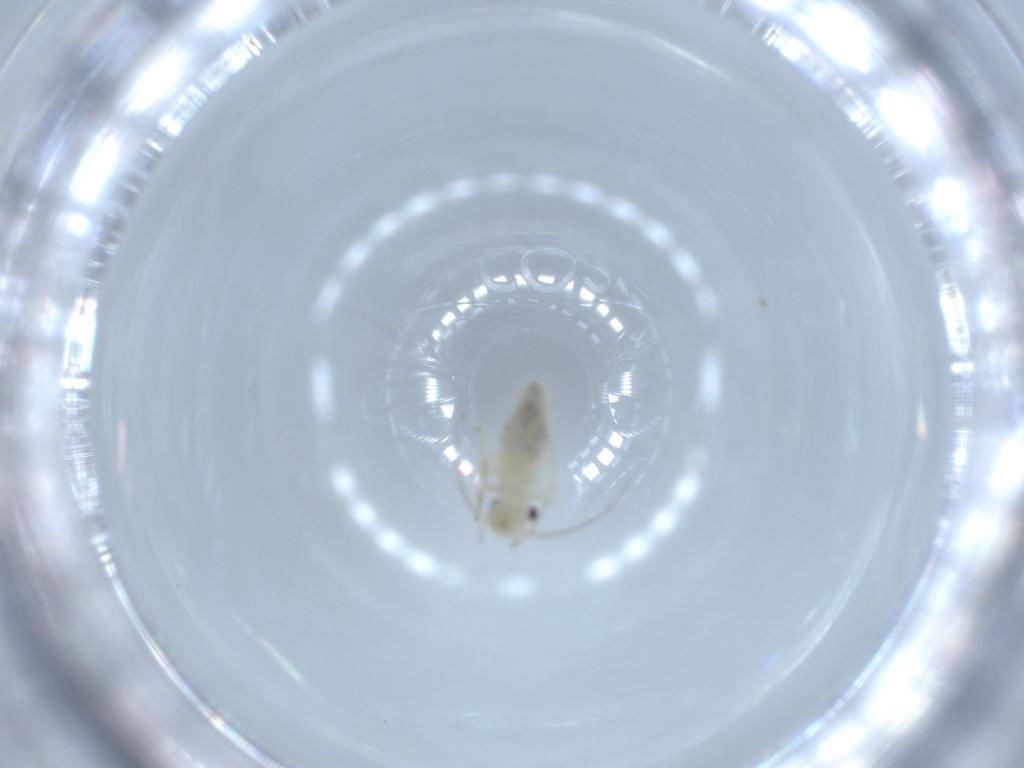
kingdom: Animalia
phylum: Arthropoda
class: Insecta
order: Psocodea
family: Caeciliusidae
